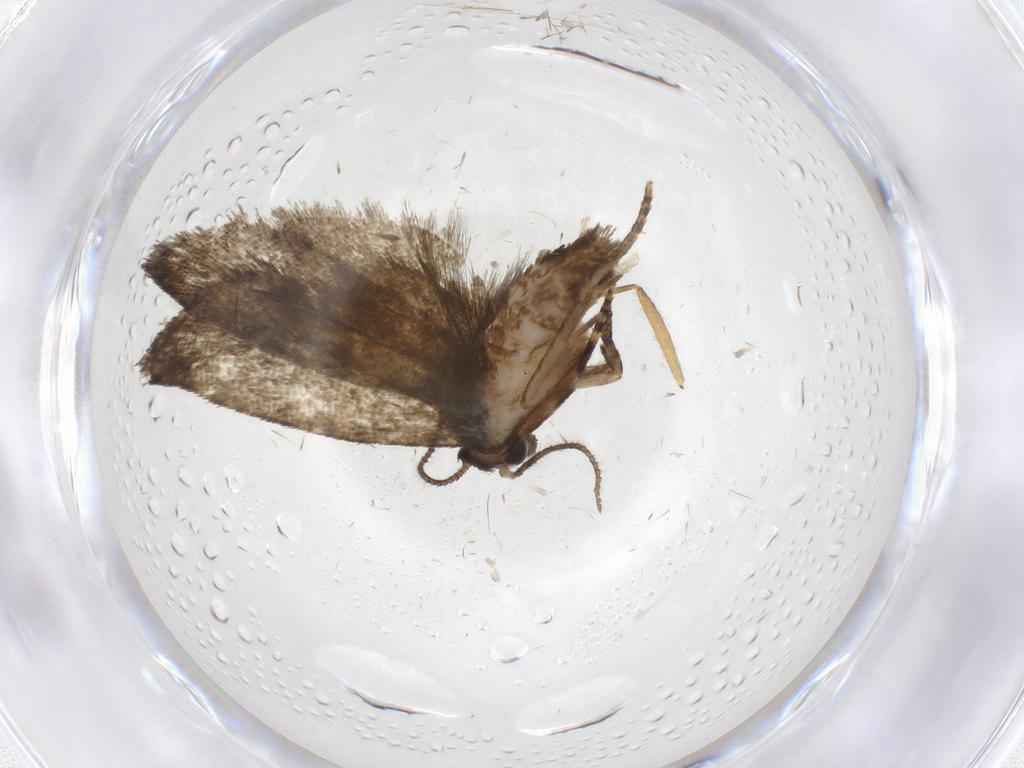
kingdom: Animalia
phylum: Arthropoda
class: Insecta
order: Lepidoptera
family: Tortricidae
